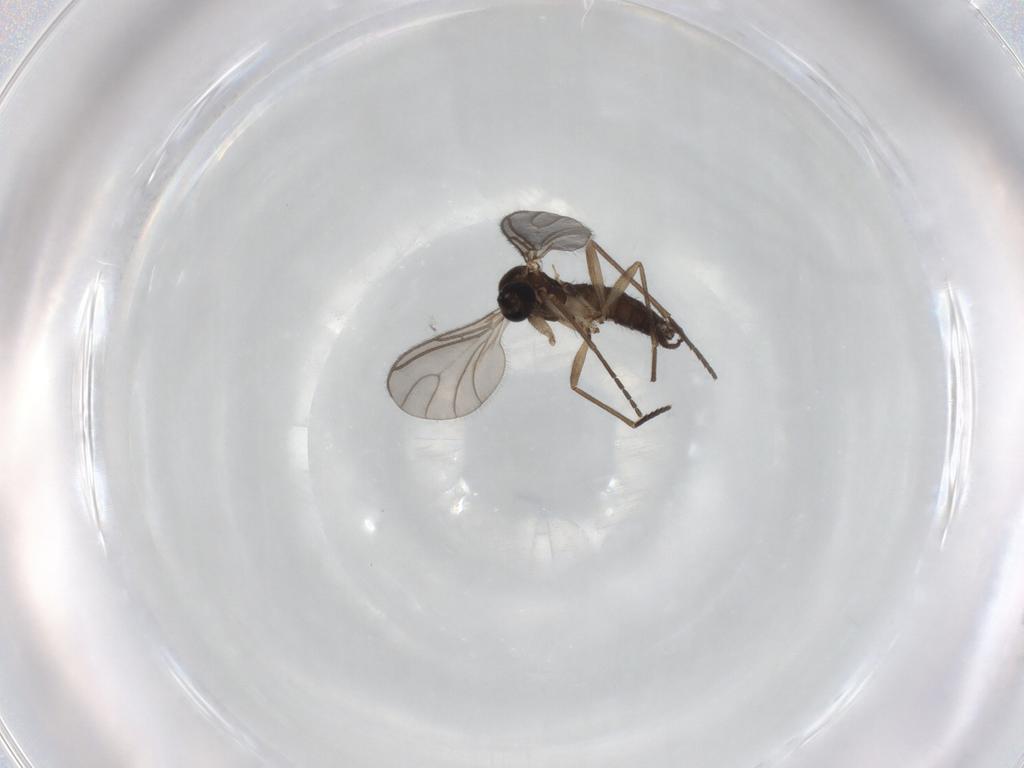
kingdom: Animalia
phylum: Arthropoda
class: Insecta
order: Diptera
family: Sciaridae
